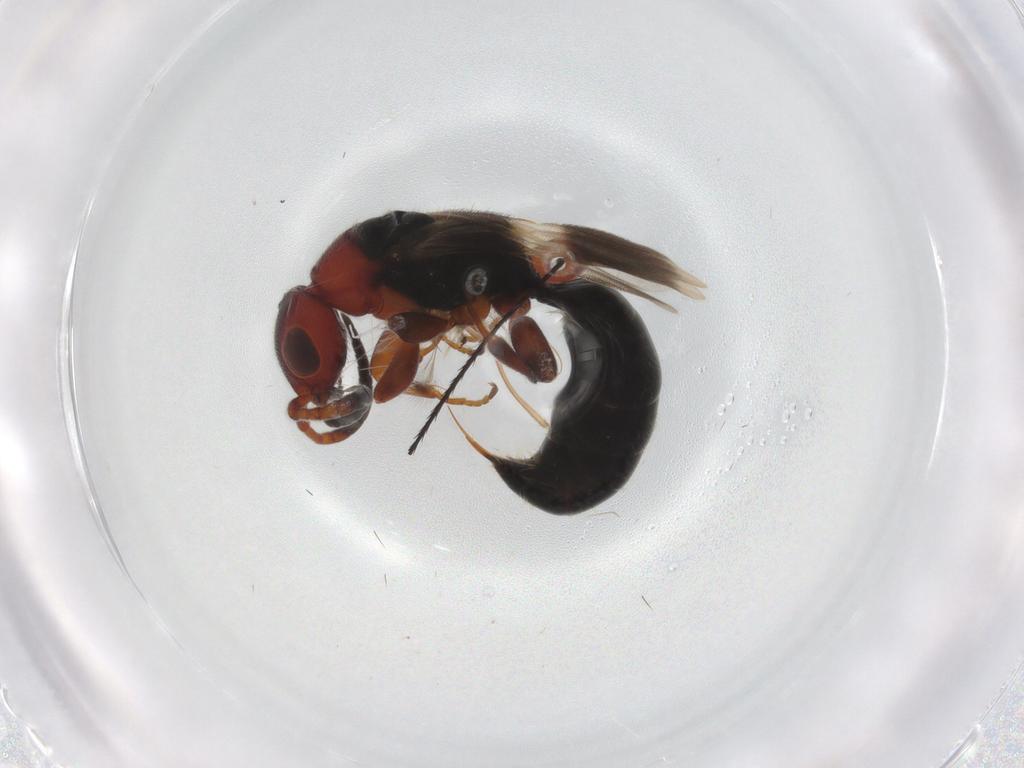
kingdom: Animalia
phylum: Arthropoda
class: Insecta
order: Hymenoptera
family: Bethylidae
